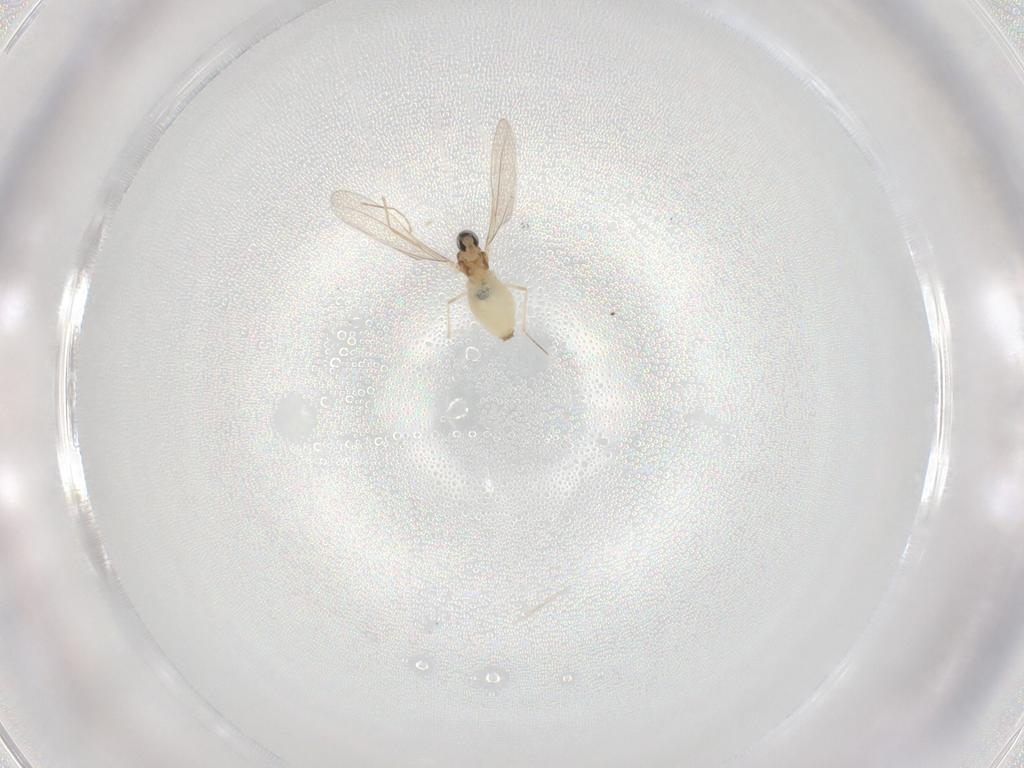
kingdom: Animalia
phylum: Arthropoda
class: Insecta
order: Diptera
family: Cecidomyiidae
